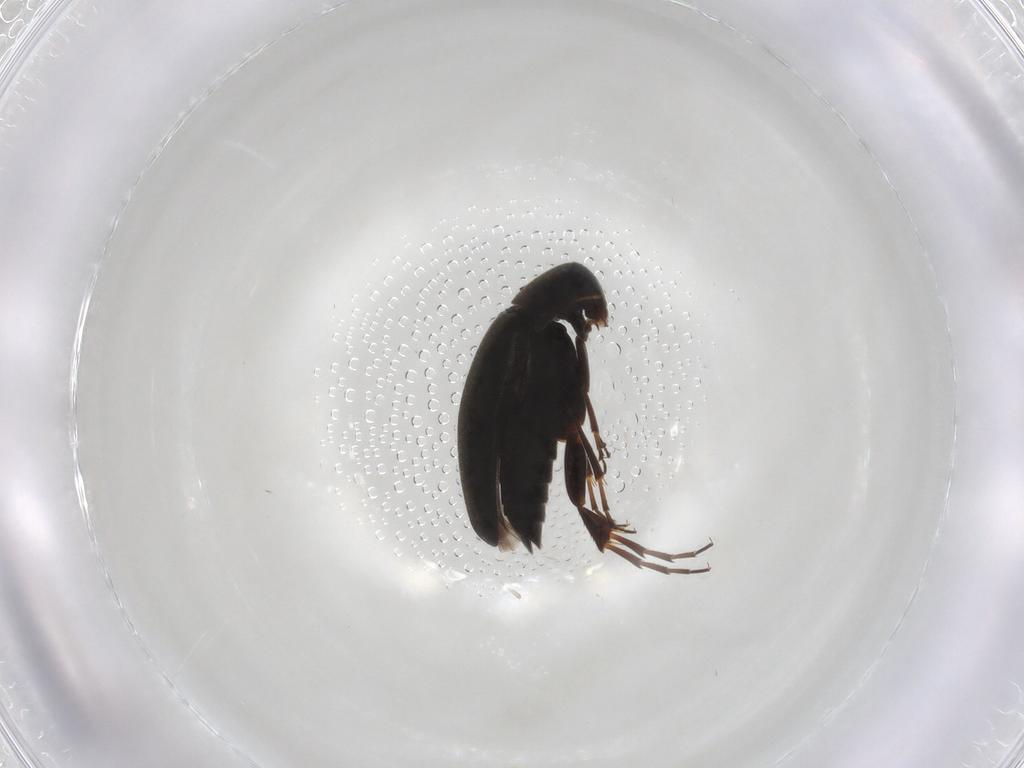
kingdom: Animalia
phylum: Arthropoda
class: Insecta
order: Coleoptera
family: Scraptiidae
